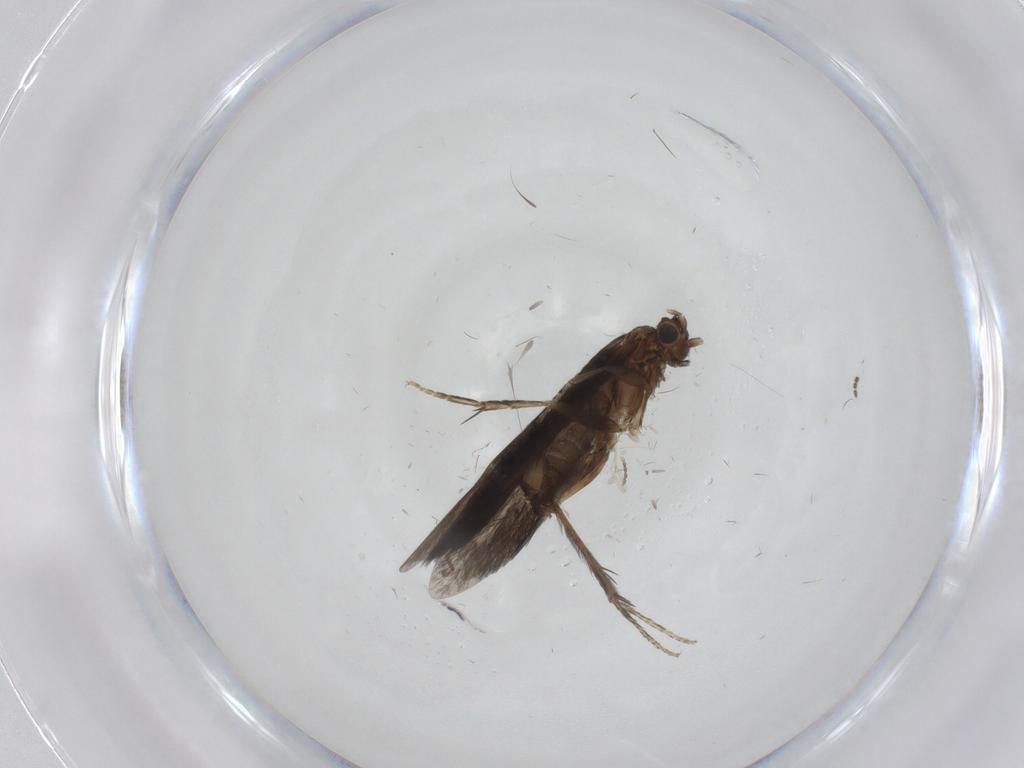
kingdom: Animalia
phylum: Arthropoda
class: Insecta
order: Trichoptera
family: Glossosomatidae
